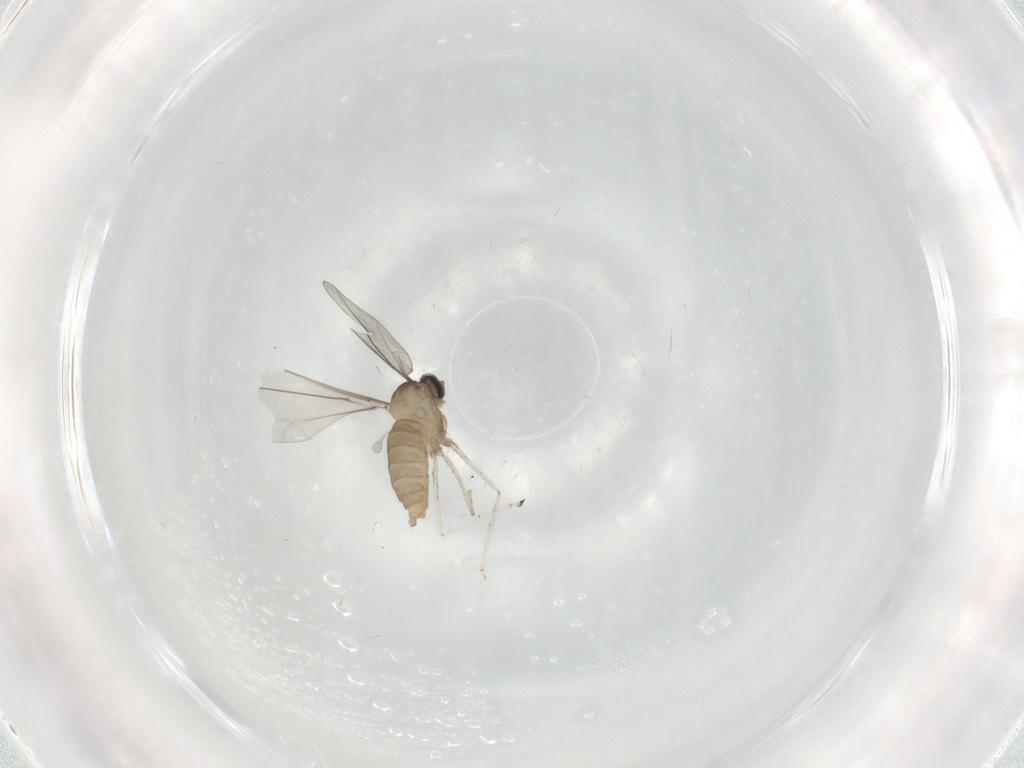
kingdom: Animalia
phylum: Arthropoda
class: Insecta
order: Diptera
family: Cecidomyiidae
